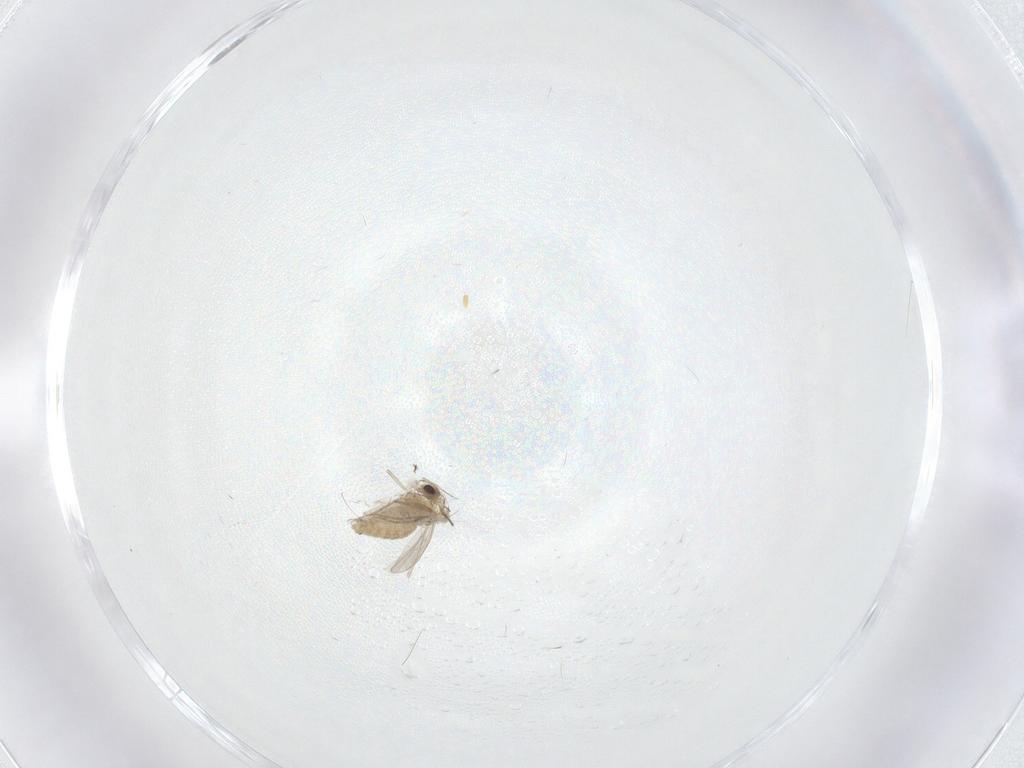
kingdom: Animalia
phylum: Arthropoda
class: Insecta
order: Diptera
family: Chironomidae
